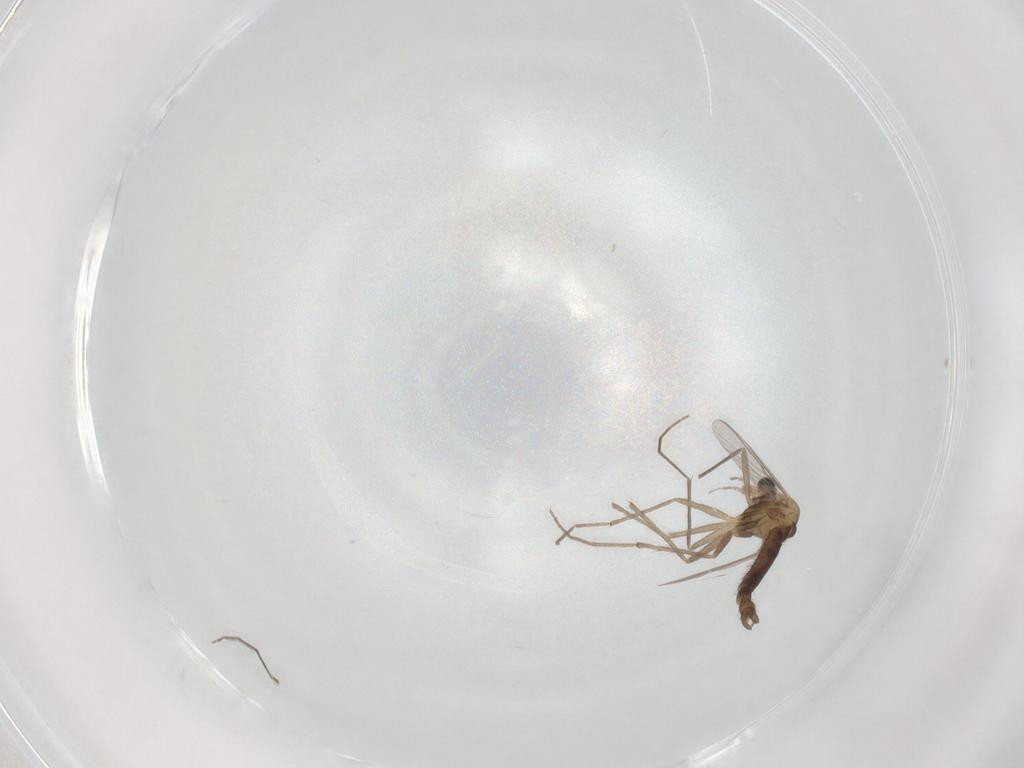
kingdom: Animalia
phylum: Arthropoda
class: Insecta
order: Diptera
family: Chironomidae
